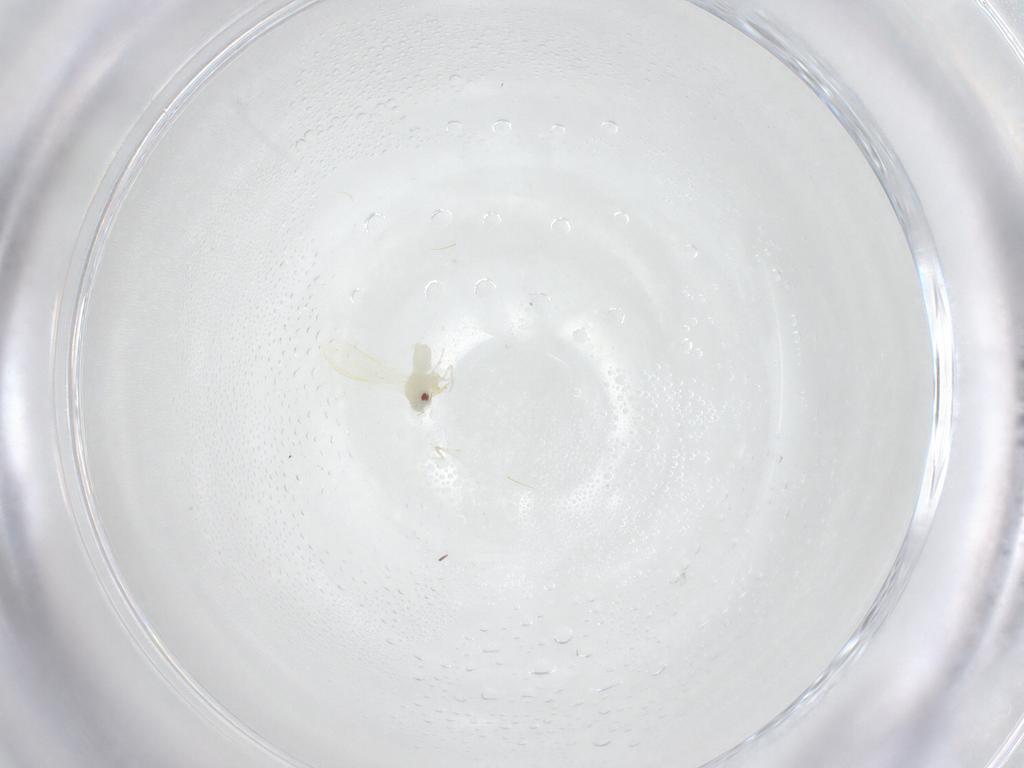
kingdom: Animalia
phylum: Arthropoda
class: Insecta
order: Hemiptera
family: Aleyrodidae
